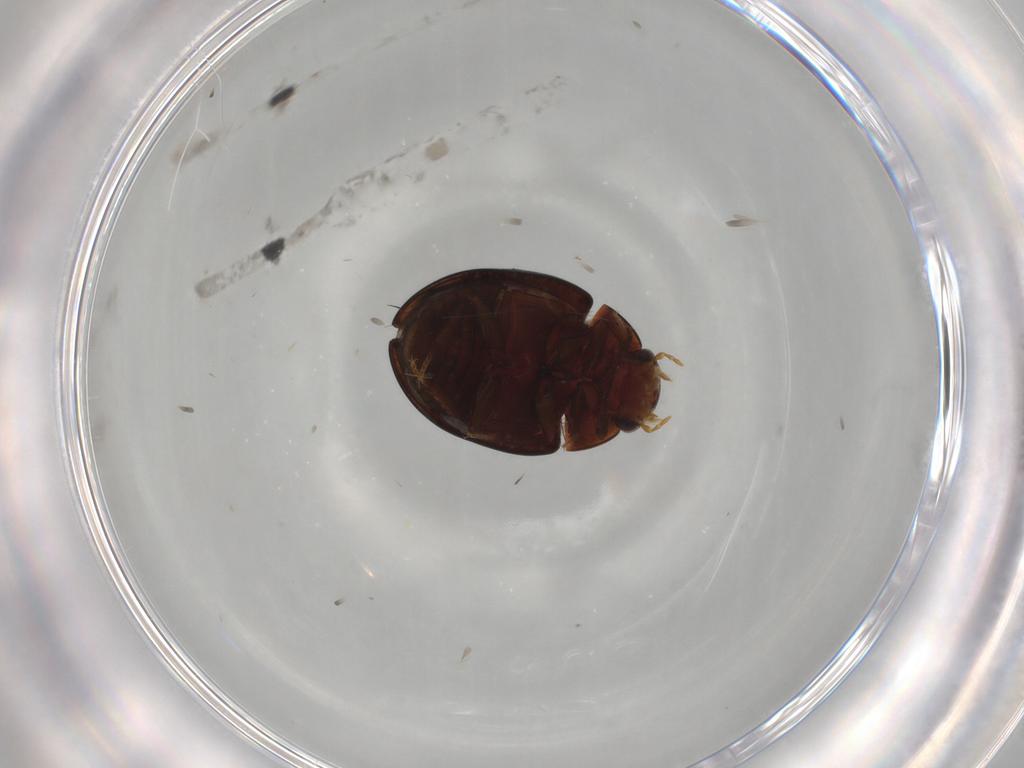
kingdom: Animalia
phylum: Arthropoda
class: Insecta
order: Coleoptera
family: Hydrophilidae
